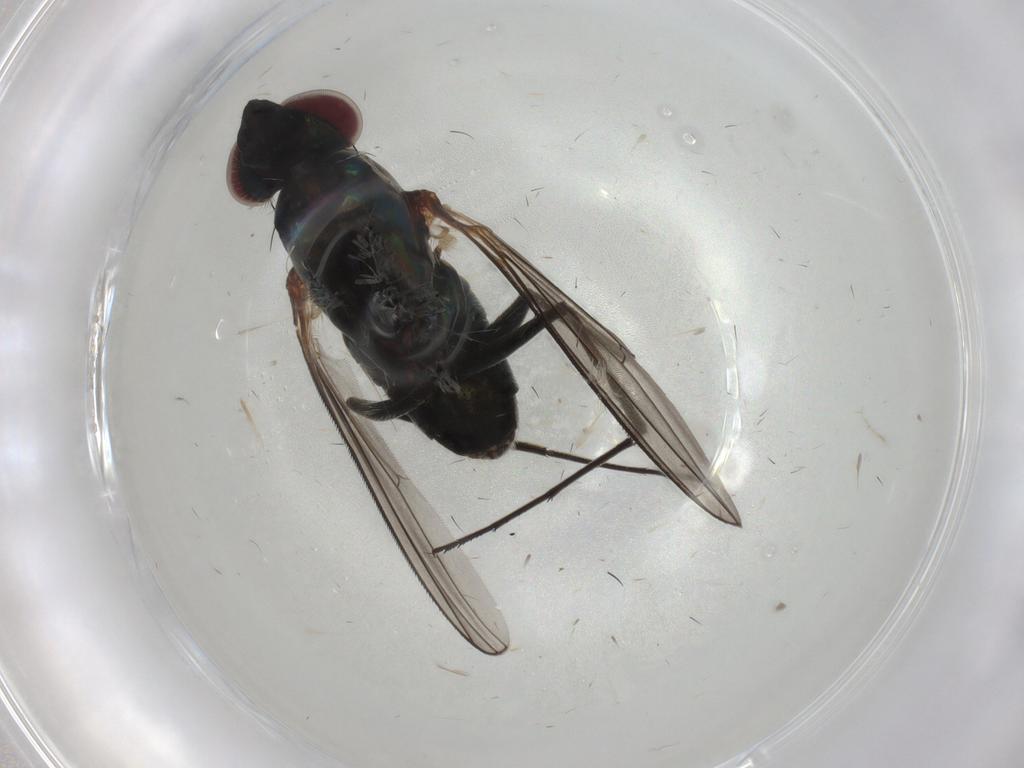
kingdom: Animalia
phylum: Arthropoda
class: Insecta
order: Diptera
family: Dolichopodidae
